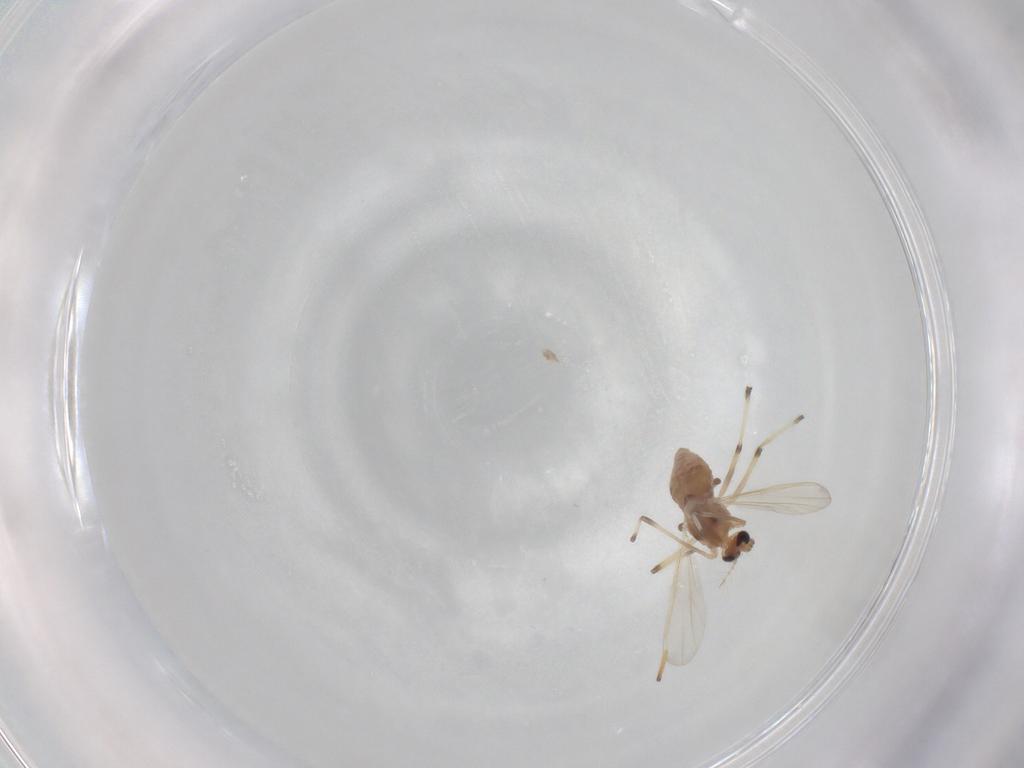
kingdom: Animalia
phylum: Arthropoda
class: Insecta
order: Diptera
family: Chironomidae
